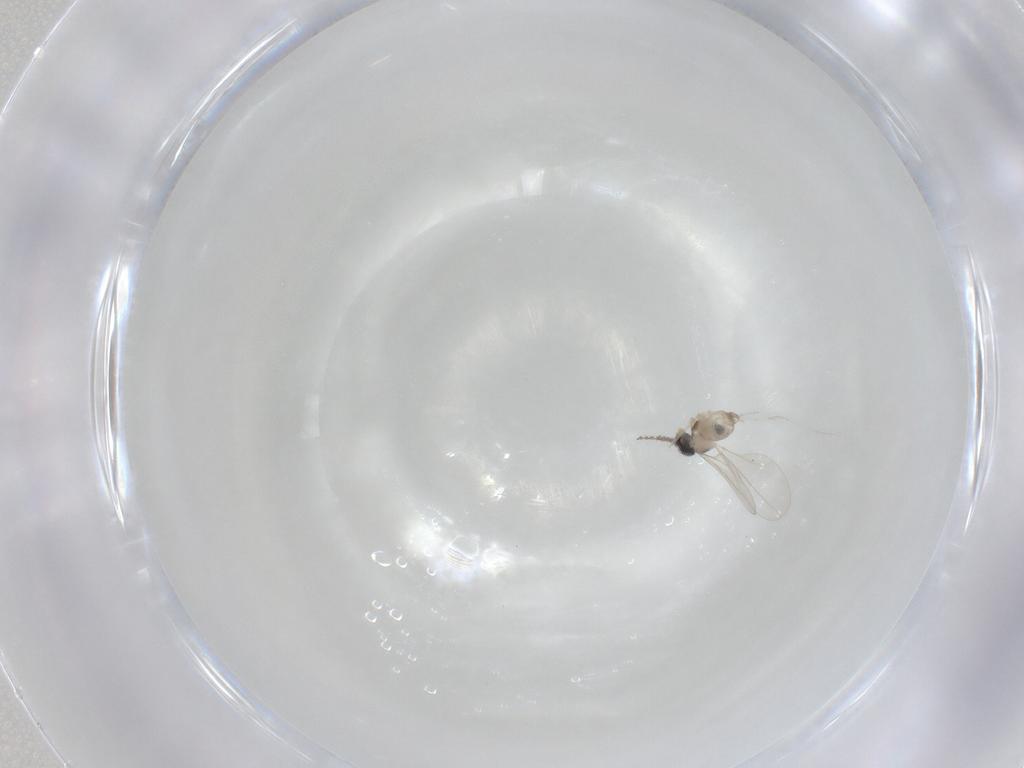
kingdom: Animalia
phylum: Arthropoda
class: Insecta
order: Diptera
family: Cecidomyiidae
